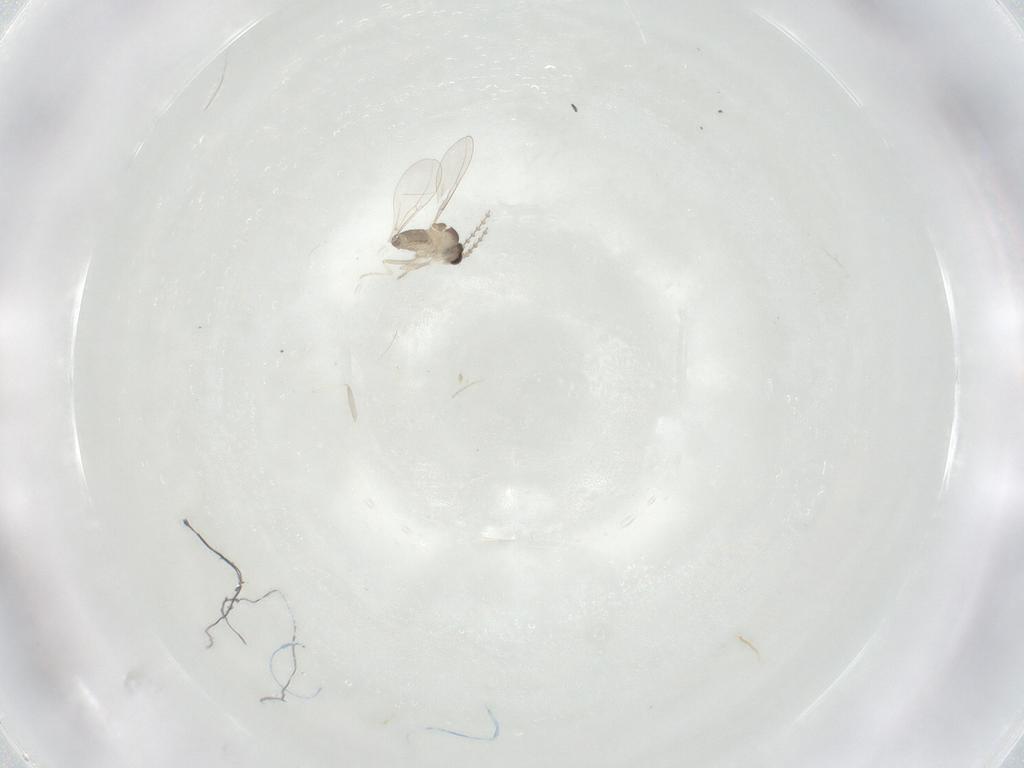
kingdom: Animalia
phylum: Arthropoda
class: Insecta
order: Diptera
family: Cecidomyiidae
